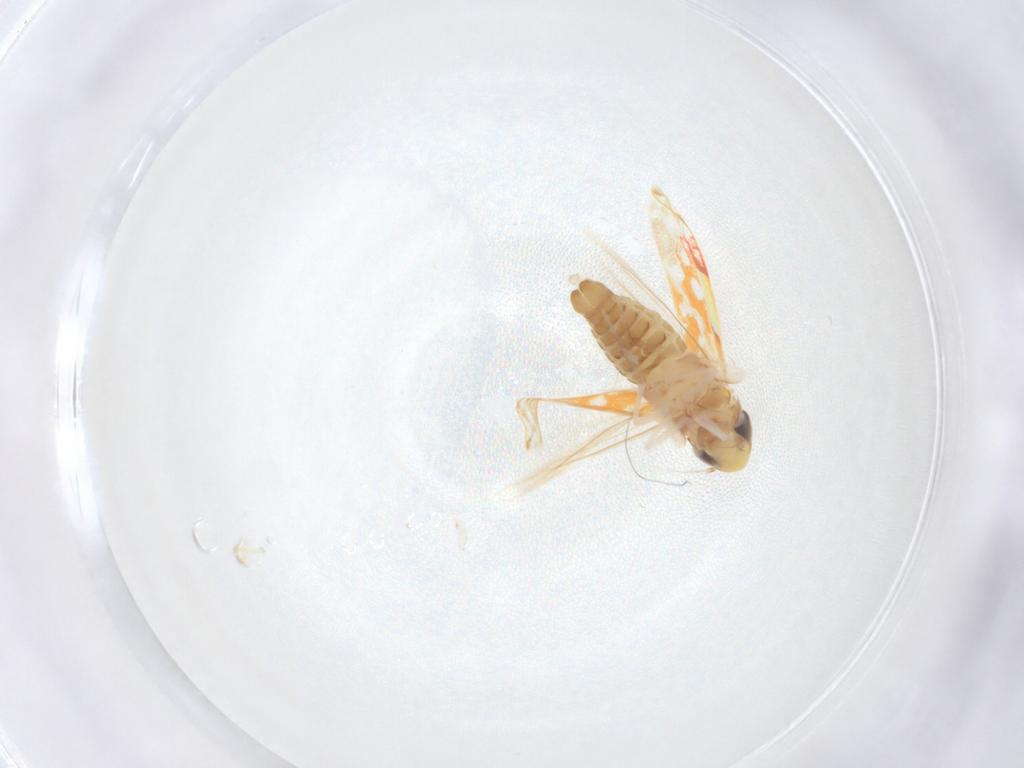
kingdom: Animalia
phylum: Arthropoda
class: Insecta
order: Hemiptera
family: Cicadellidae
